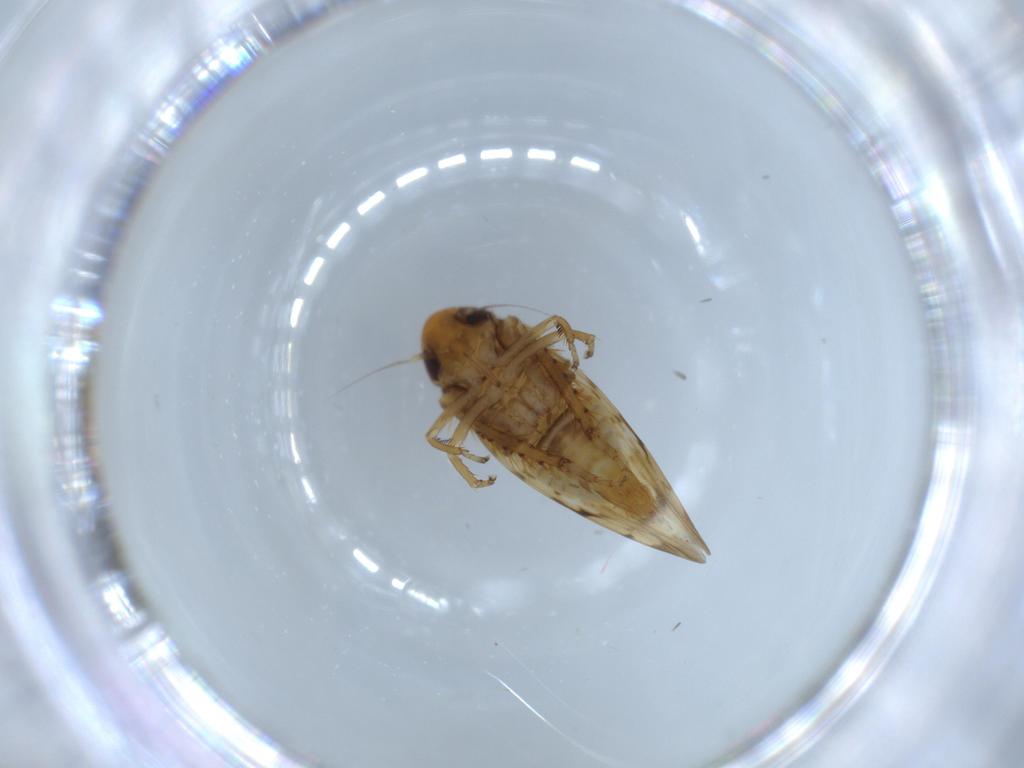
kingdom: Animalia
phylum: Arthropoda
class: Insecta
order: Hemiptera
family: Cicadellidae
